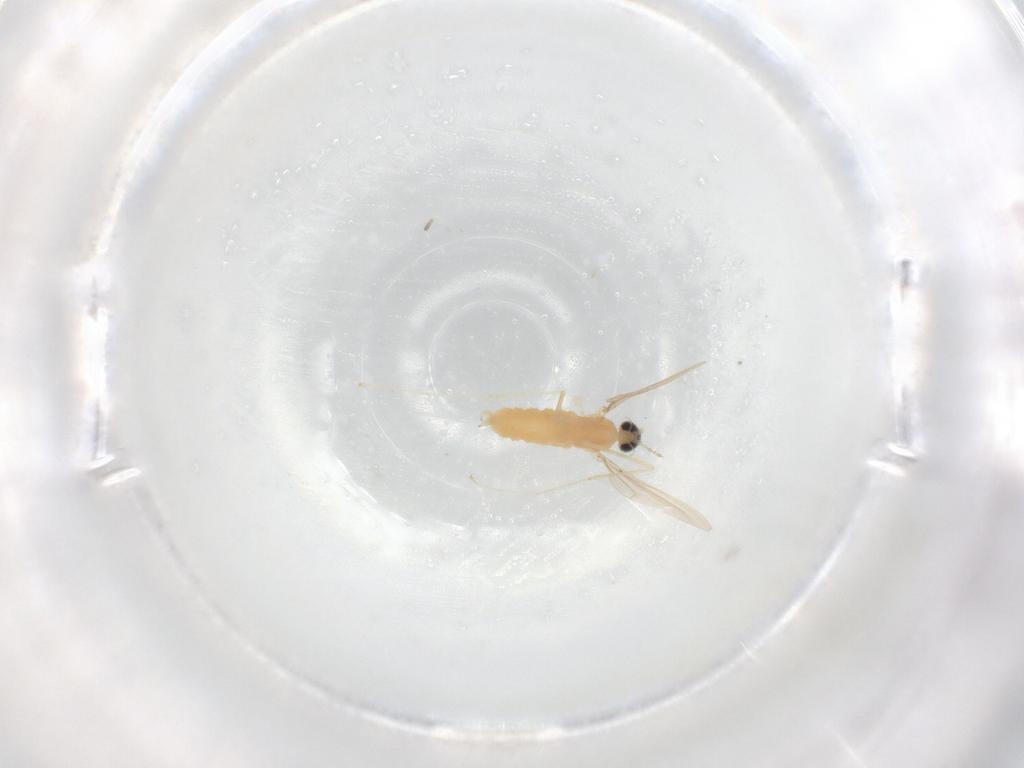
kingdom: Animalia
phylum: Arthropoda
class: Insecta
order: Diptera
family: Cecidomyiidae
